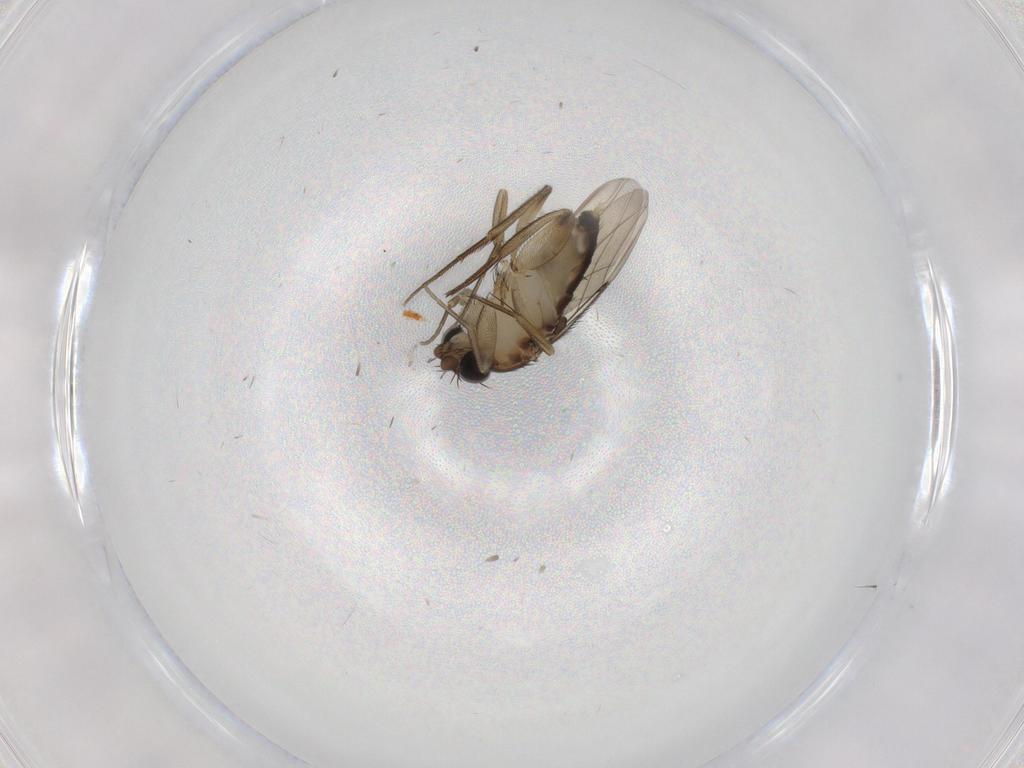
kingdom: Animalia
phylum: Arthropoda
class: Insecta
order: Diptera
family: Phoridae
